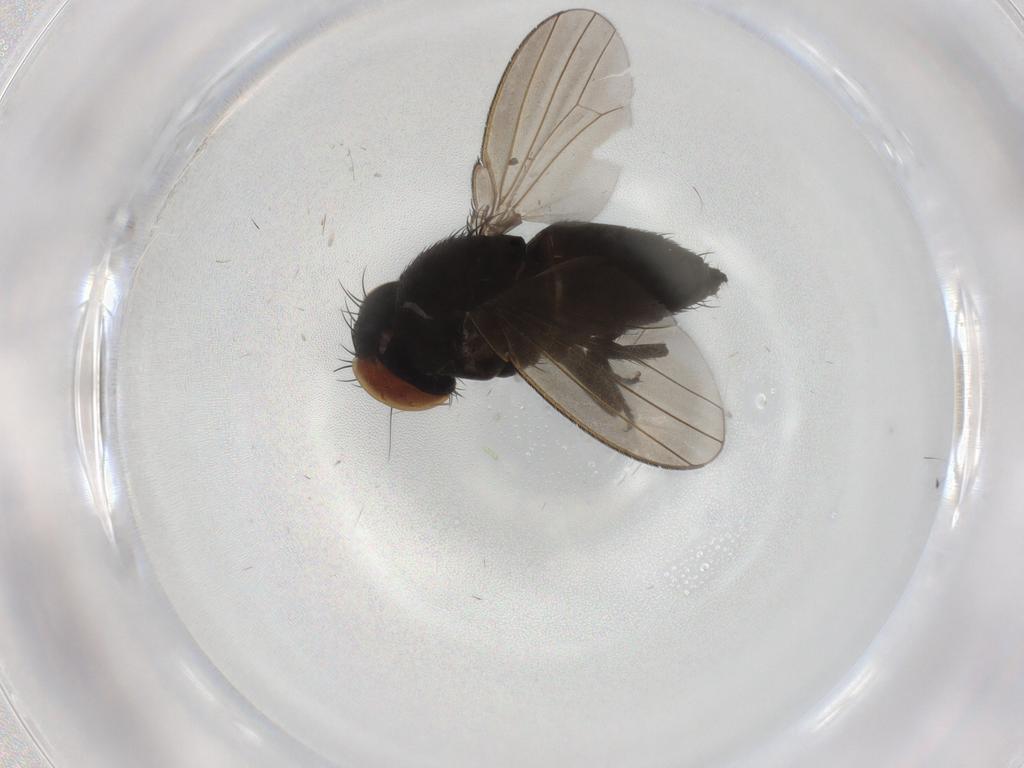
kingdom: Animalia
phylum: Arthropoda
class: Insecta
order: Diptera
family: Milichiidae
